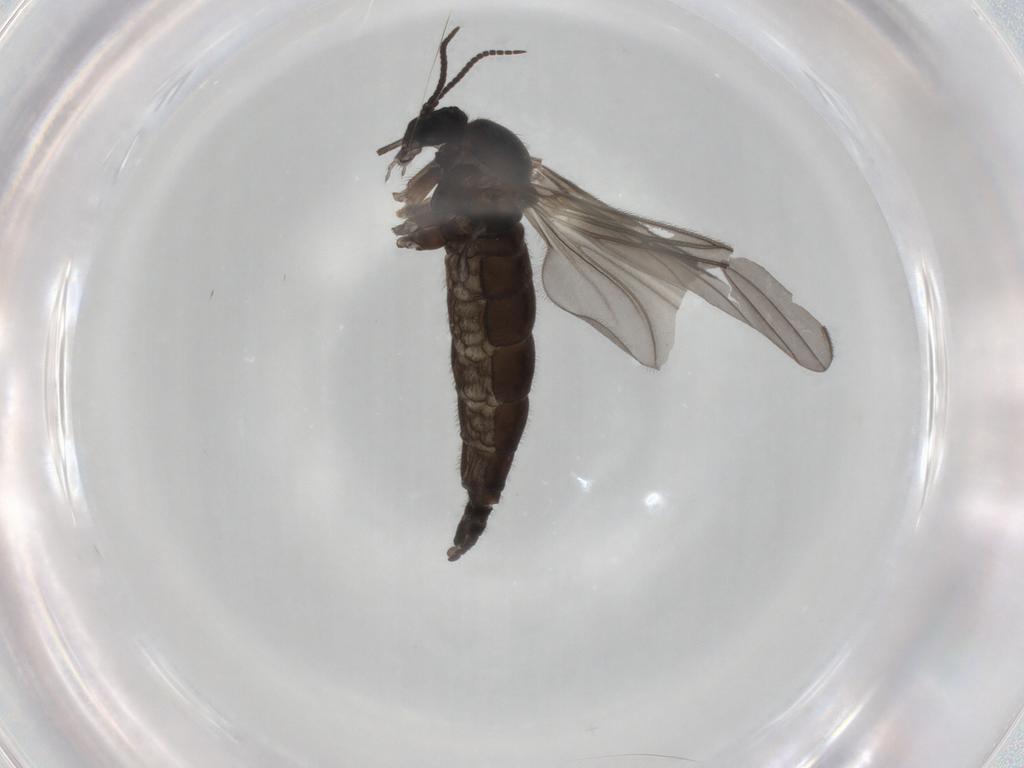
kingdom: Animalia
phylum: Arthropoda
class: Insecta
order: Diptera
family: Sciaridae
